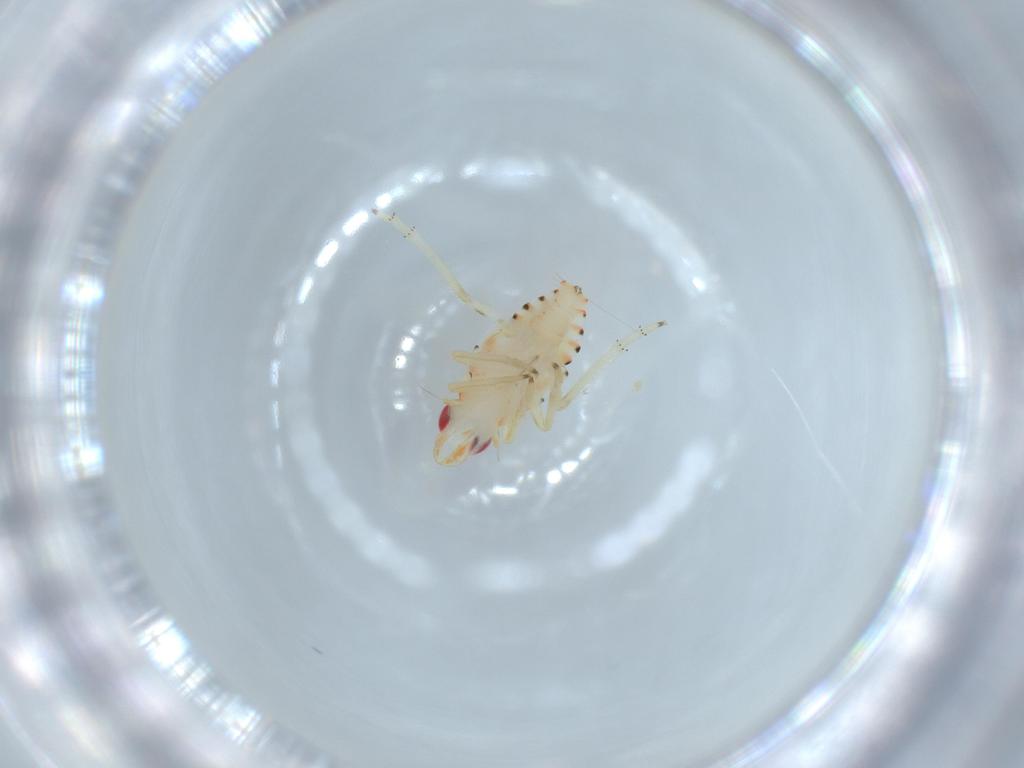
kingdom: Animalia
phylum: Arthropoda
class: Insecta
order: Hemiptera
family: Tropiduchidae
